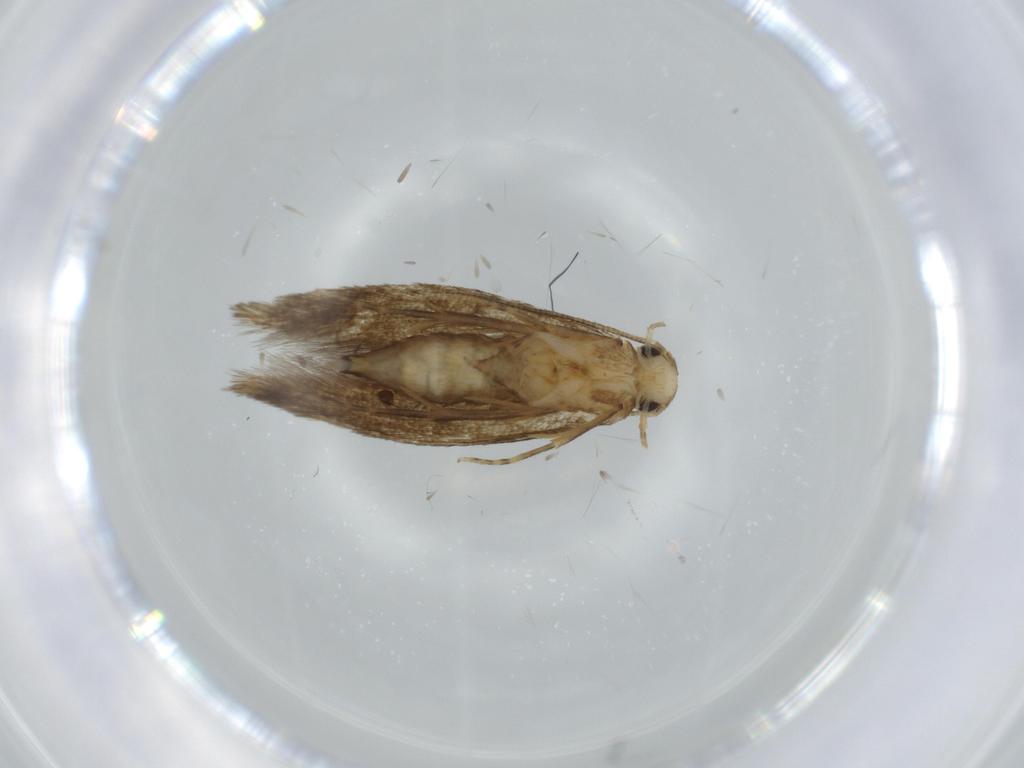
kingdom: Animalia
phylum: Arthropoda
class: Insecta
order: Lepidoptera
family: Tineidae
